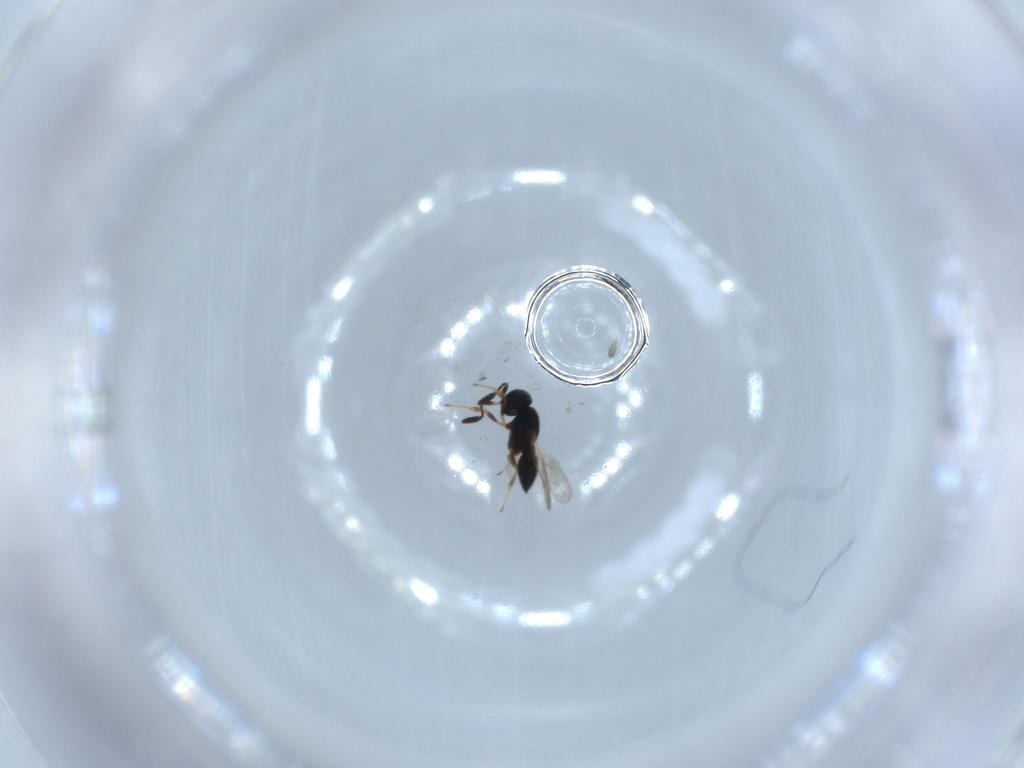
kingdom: Animalia
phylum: Arthropoda
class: Insecta
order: Hymenoptera
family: Scelionidae
